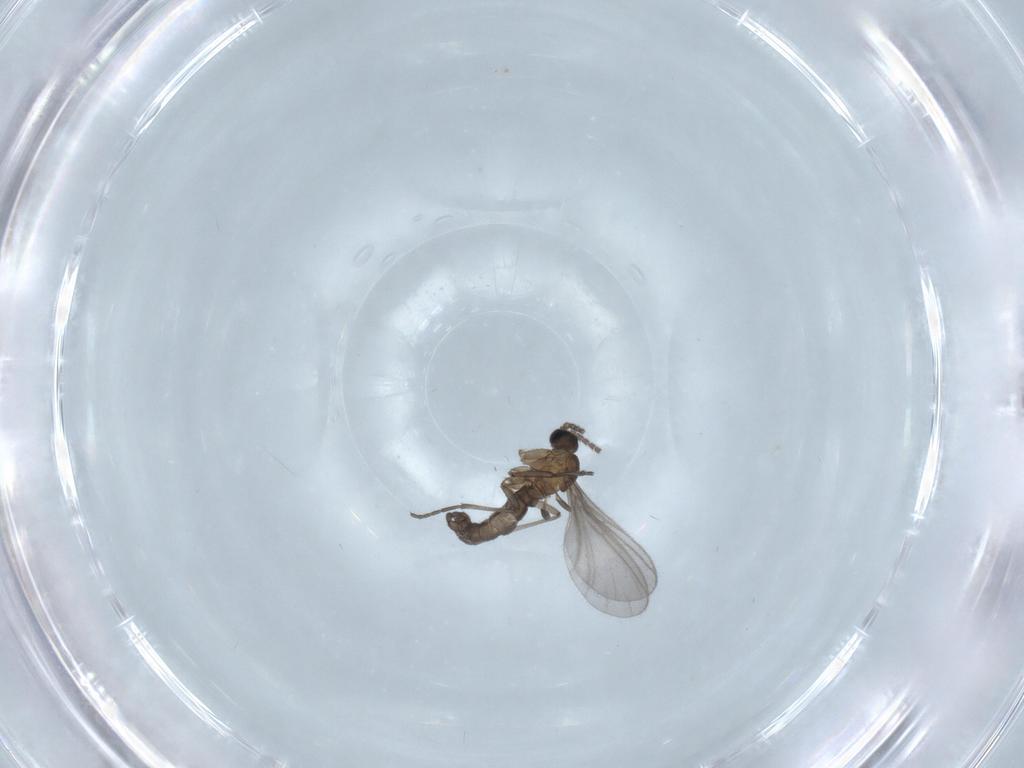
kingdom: Animalia
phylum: Arthropoda
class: Insecta
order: Diptera
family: Sciaridae
